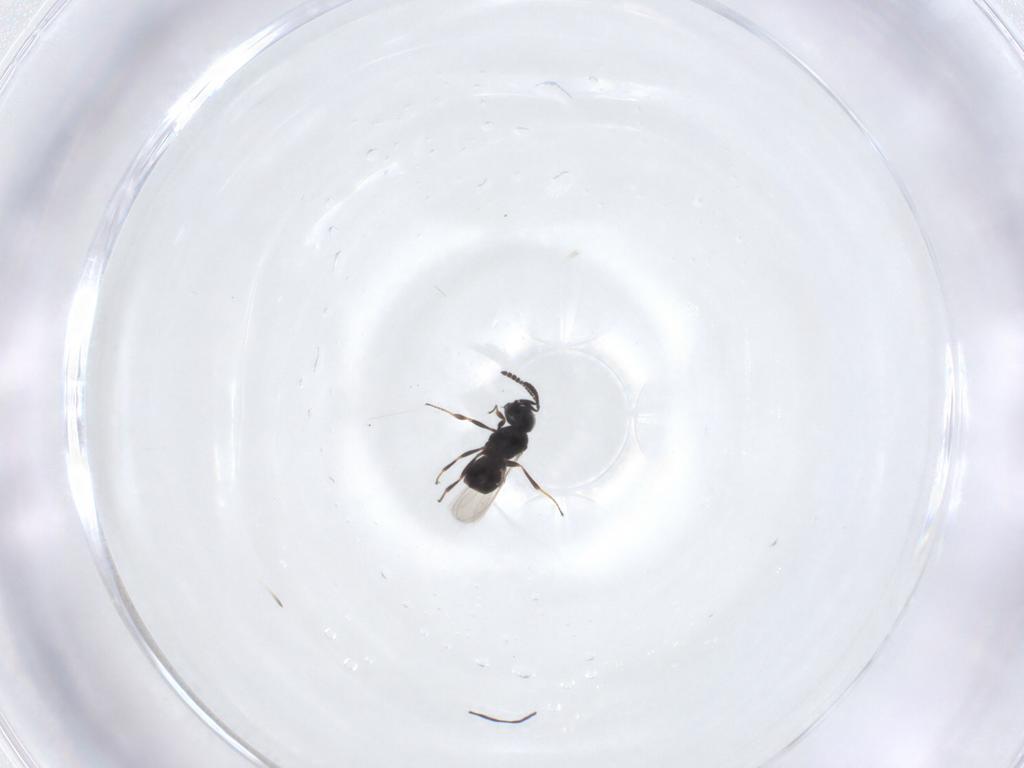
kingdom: Animalia
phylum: Arthropoda
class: Insecta
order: Hymenoptera
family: Scelionidae
